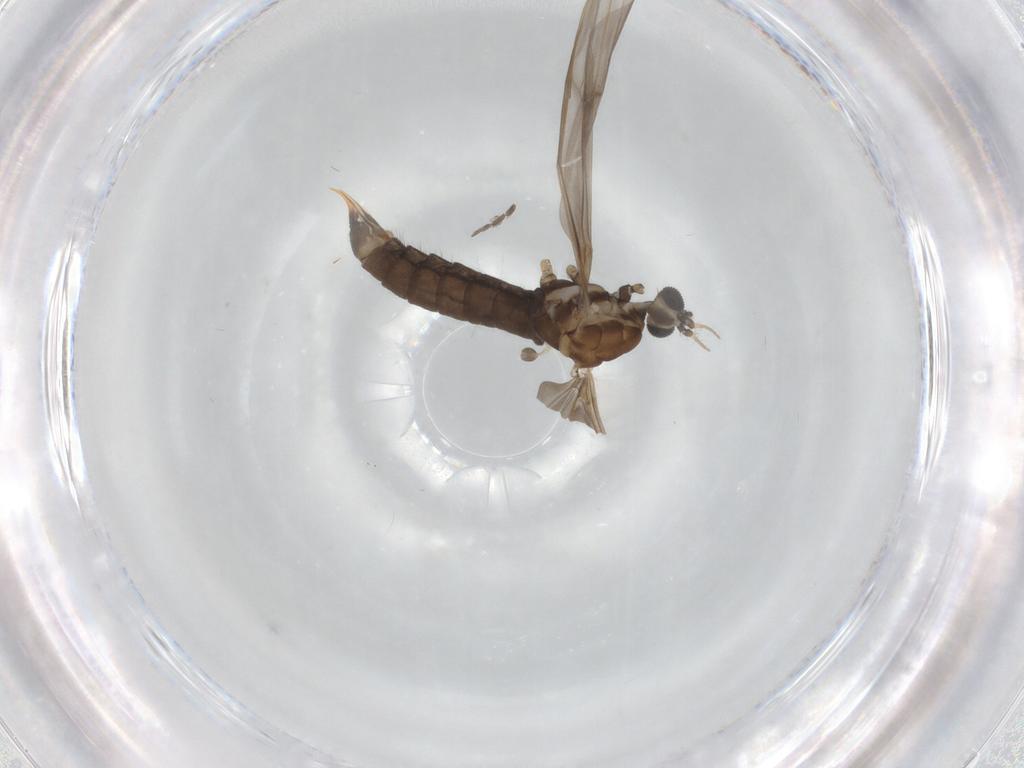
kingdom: Animalia
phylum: Arthropoda
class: Insecta
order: Diptera
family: Limoniidae
